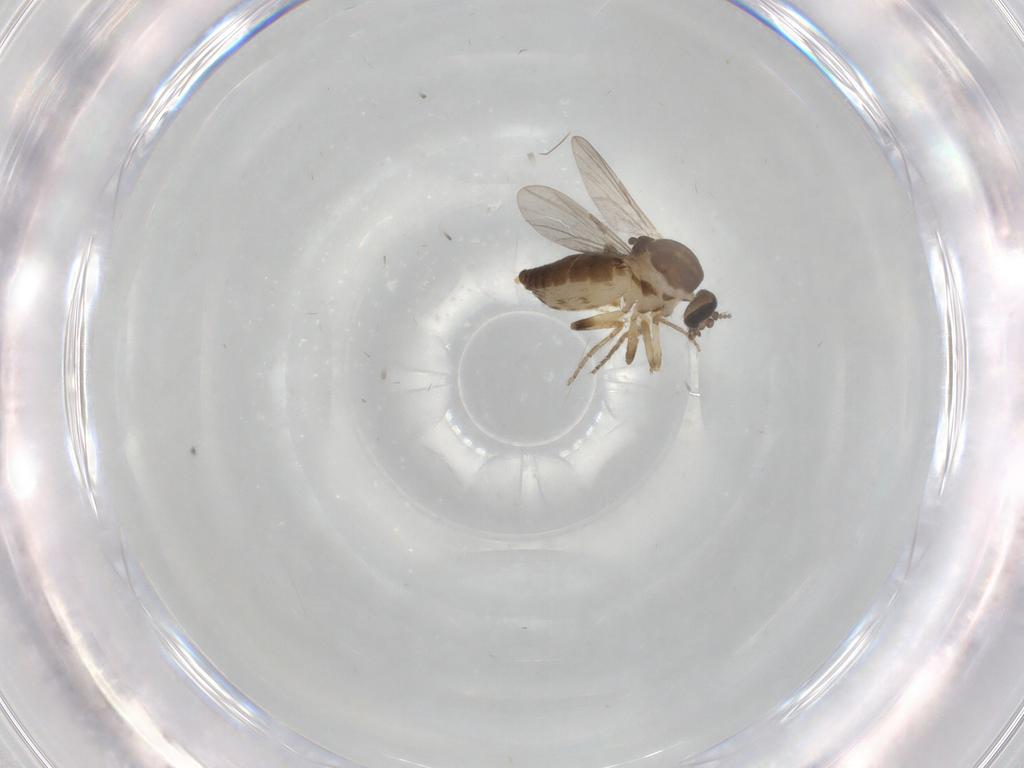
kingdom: Animalia
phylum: Arthropoda
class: Insecta
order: Diptera
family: Ceratopogonidae
